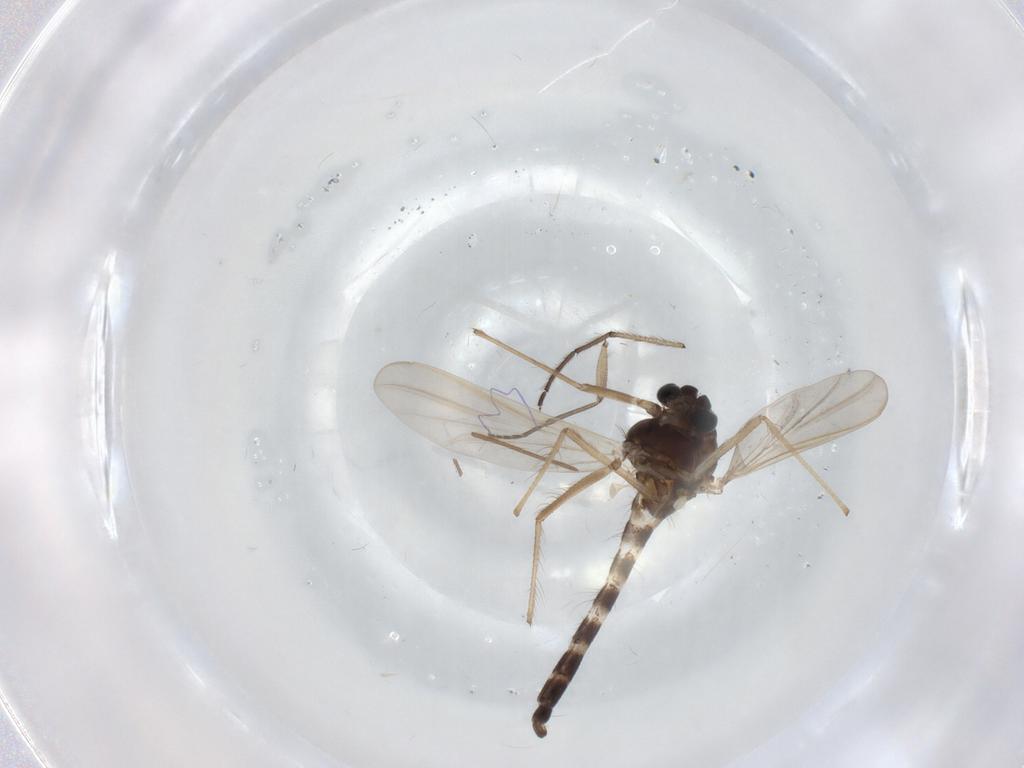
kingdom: Animalia
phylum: Arthropoda
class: Insecta
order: Diptera
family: Chironomidae
